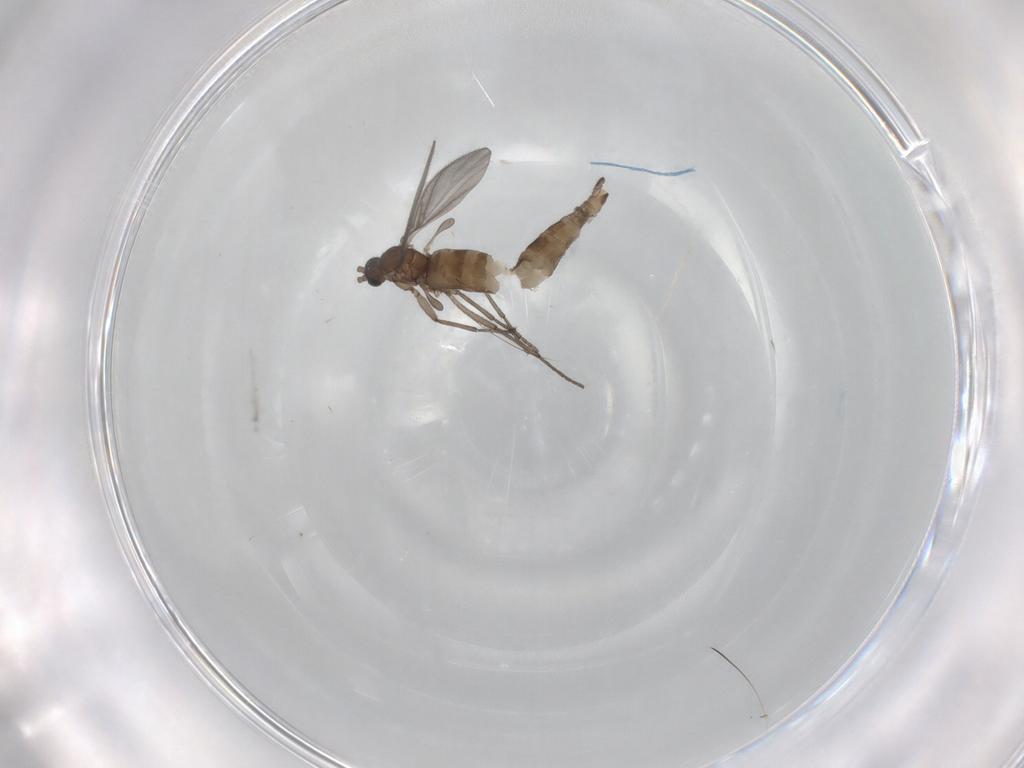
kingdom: Animalia
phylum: Arthropoda
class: Insecta
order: Diptera
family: Sciaridae
